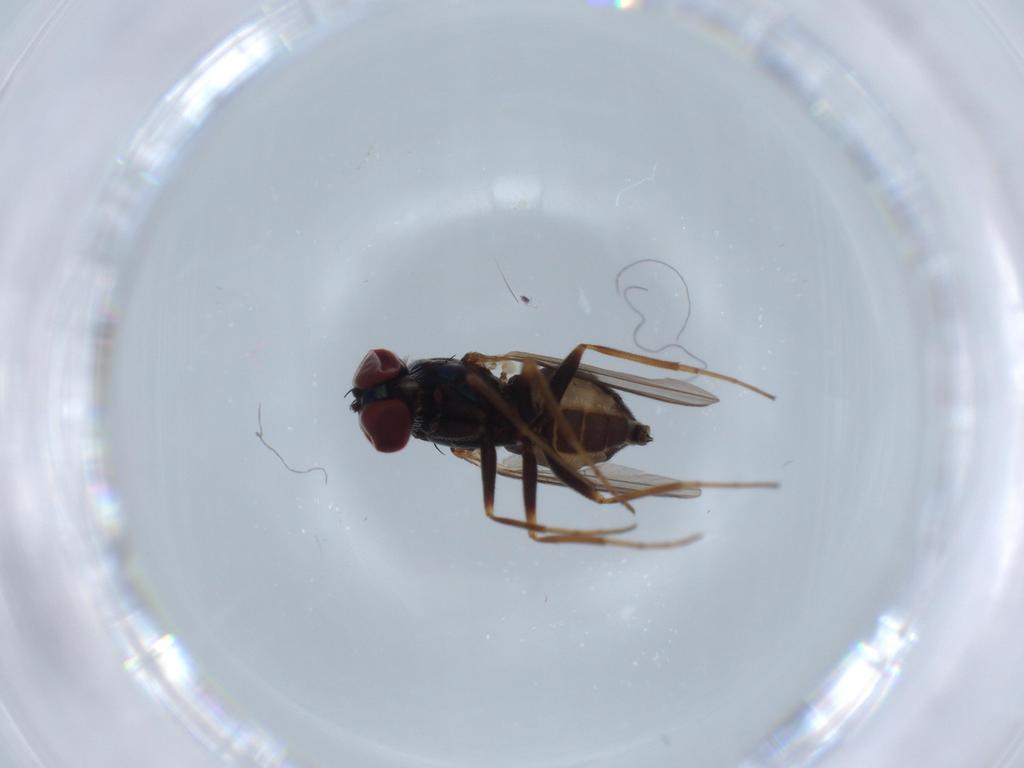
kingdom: Animalia
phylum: Arthropoda
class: Insecta
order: Diptera
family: Dolichopodidae
